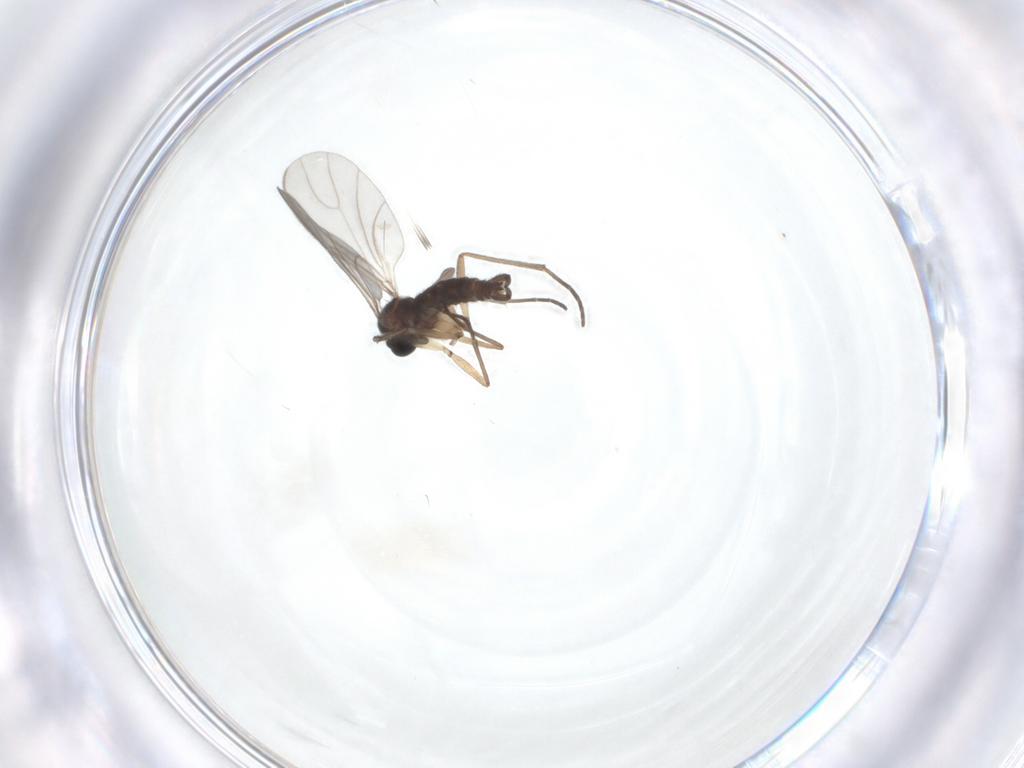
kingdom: Animalia
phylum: Arthropoda
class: Insecta
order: Diptera
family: Sciaridae
